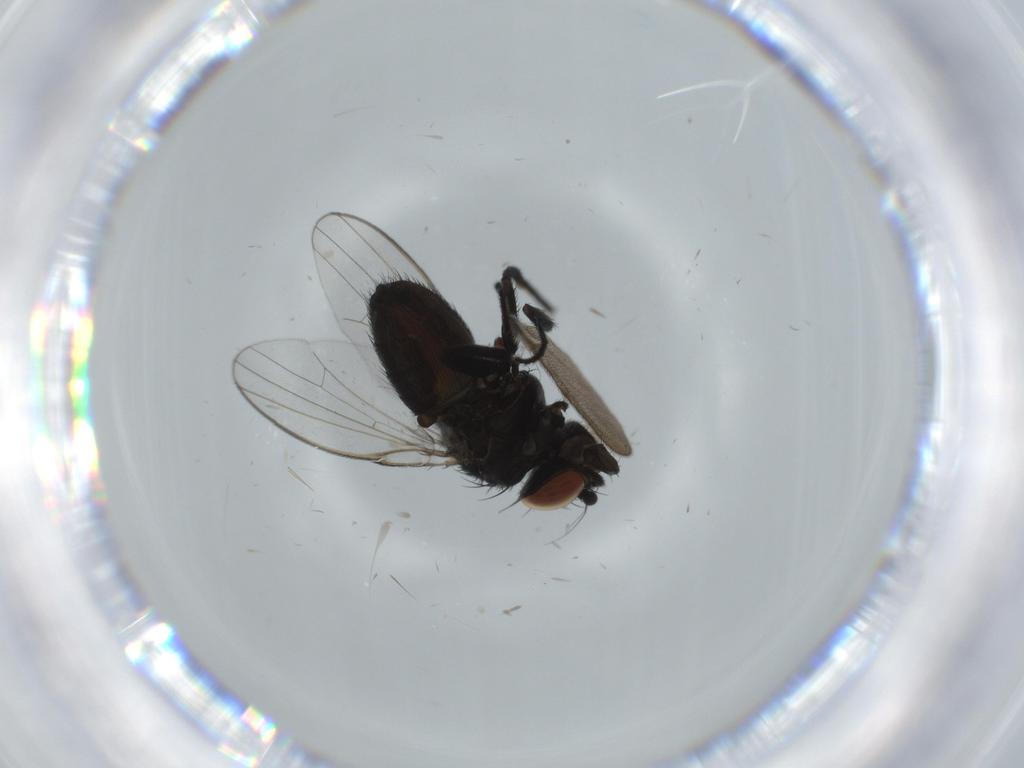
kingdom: Animalia
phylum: Arthropoda
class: Insecta
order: Diptera
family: Milichiidae
